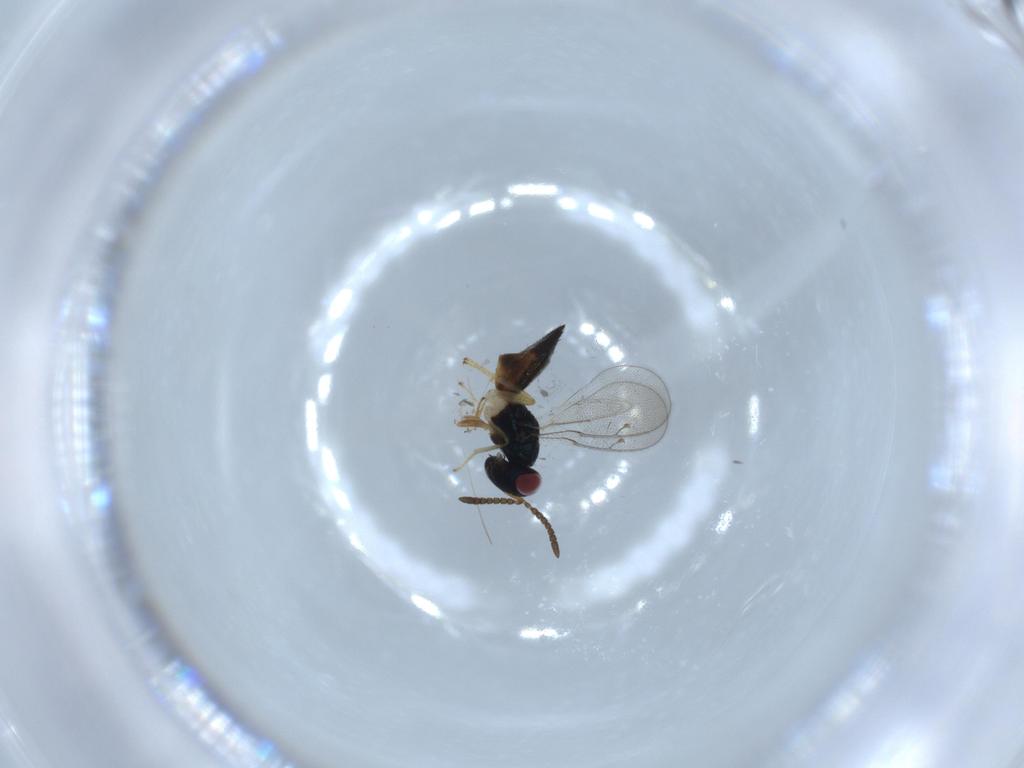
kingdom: Animalia
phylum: Arthropoda
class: Insecta
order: Hymenoptera
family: Pteromalidae
